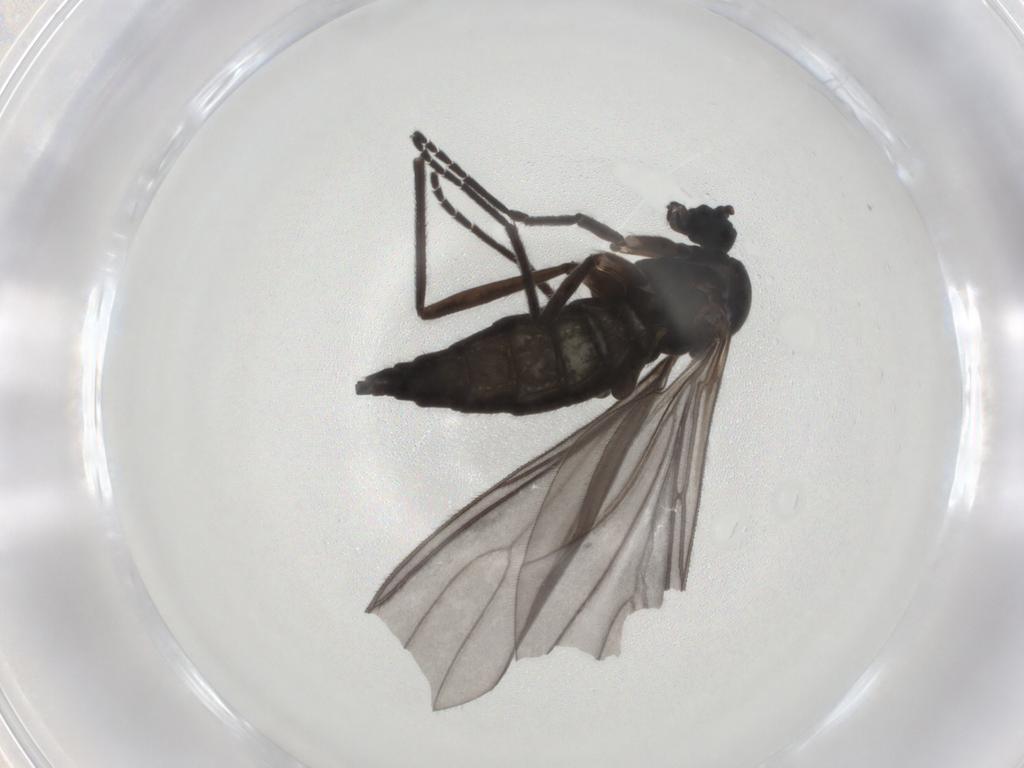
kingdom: Animalia
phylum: Arthropoda
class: Insecta
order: Diptera
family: Sciaridae
